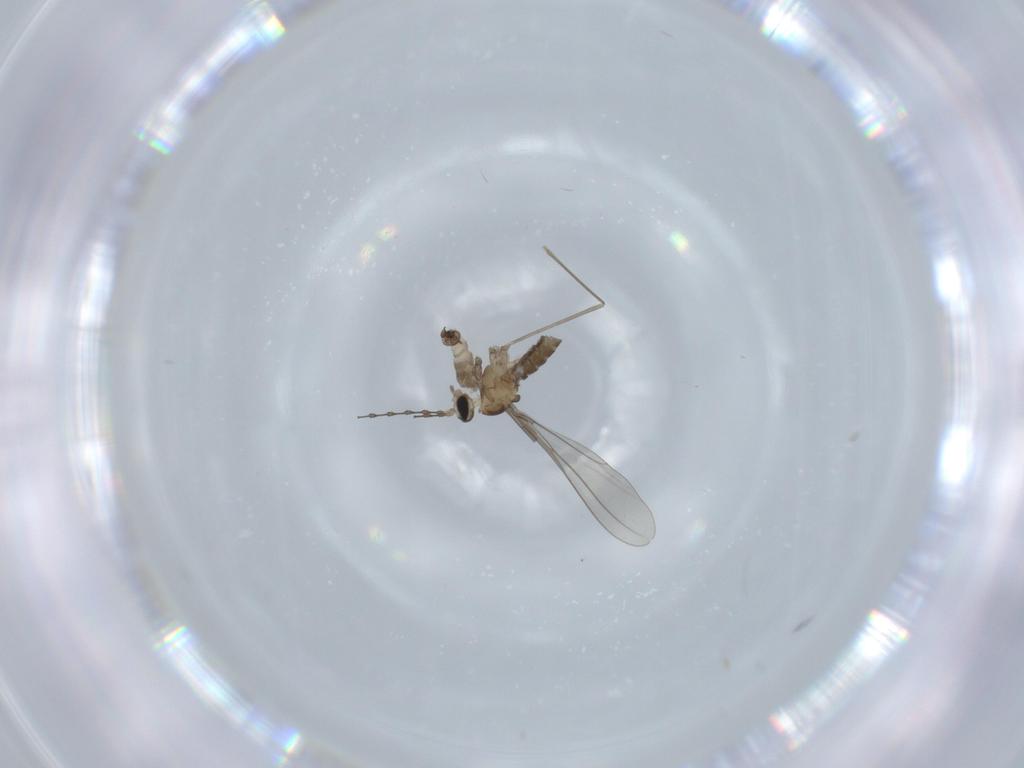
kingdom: Animalia
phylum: Arthropoda
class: Insecta
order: Diptera
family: Cecidomyiidae
